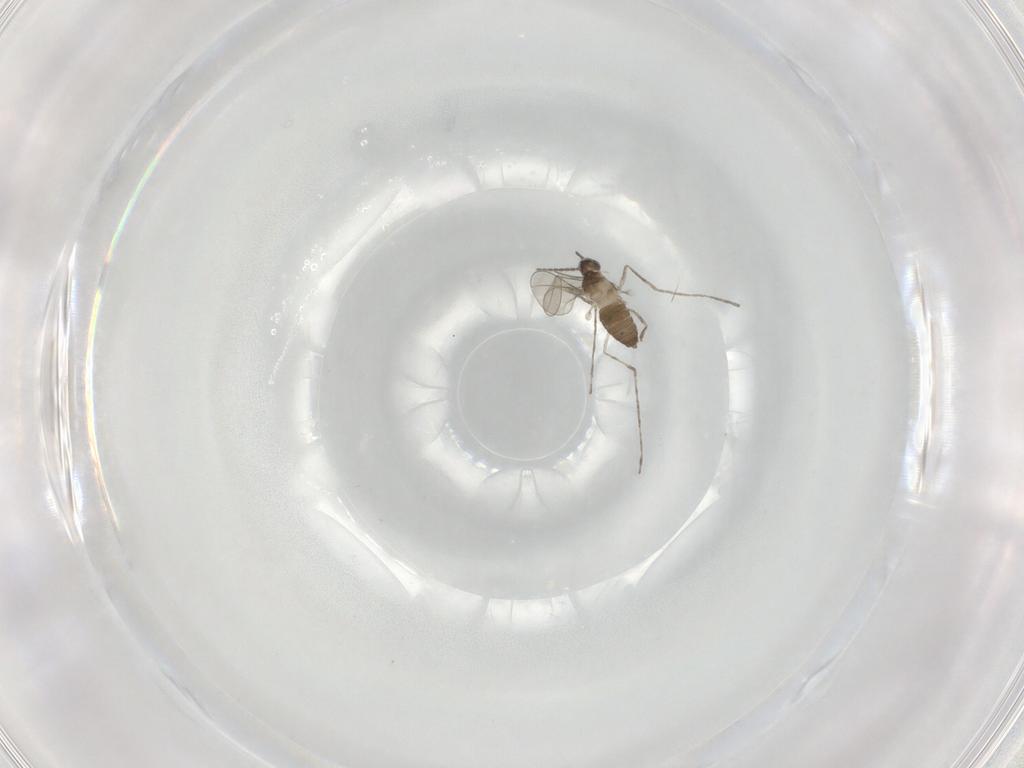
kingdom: Animalia
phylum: Arthropoda
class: Insecta
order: Diptera
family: Cecidomyiidae
